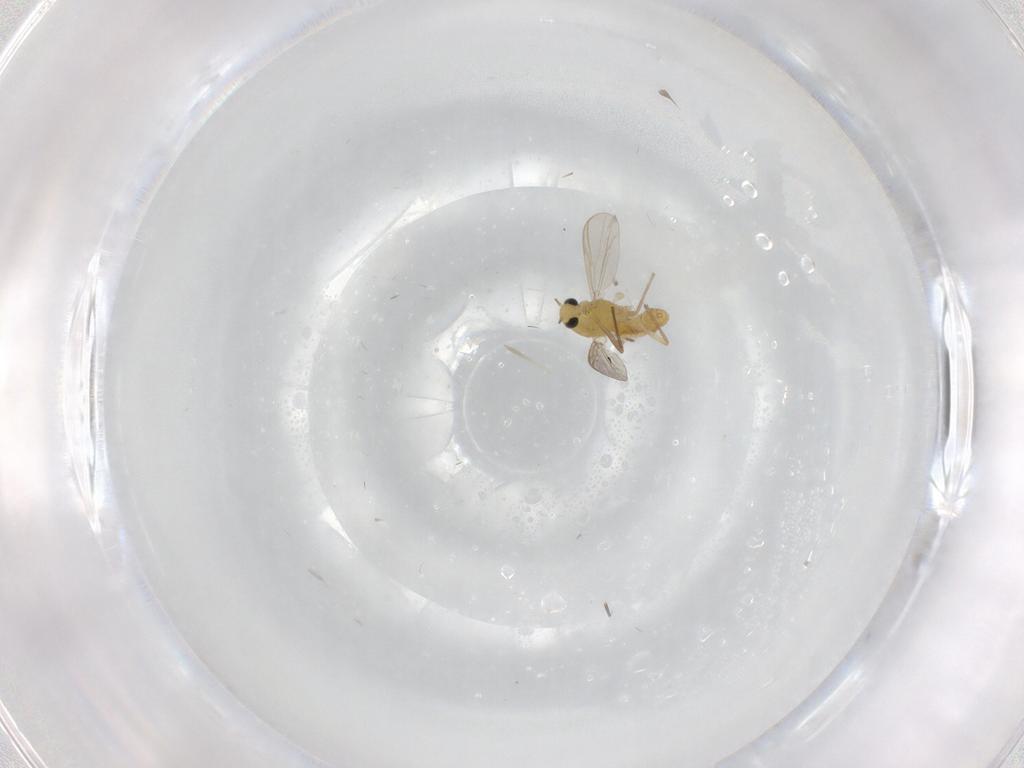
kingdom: Animalia
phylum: Arthropoda
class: Insecta
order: Diptera
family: Chironomidae
